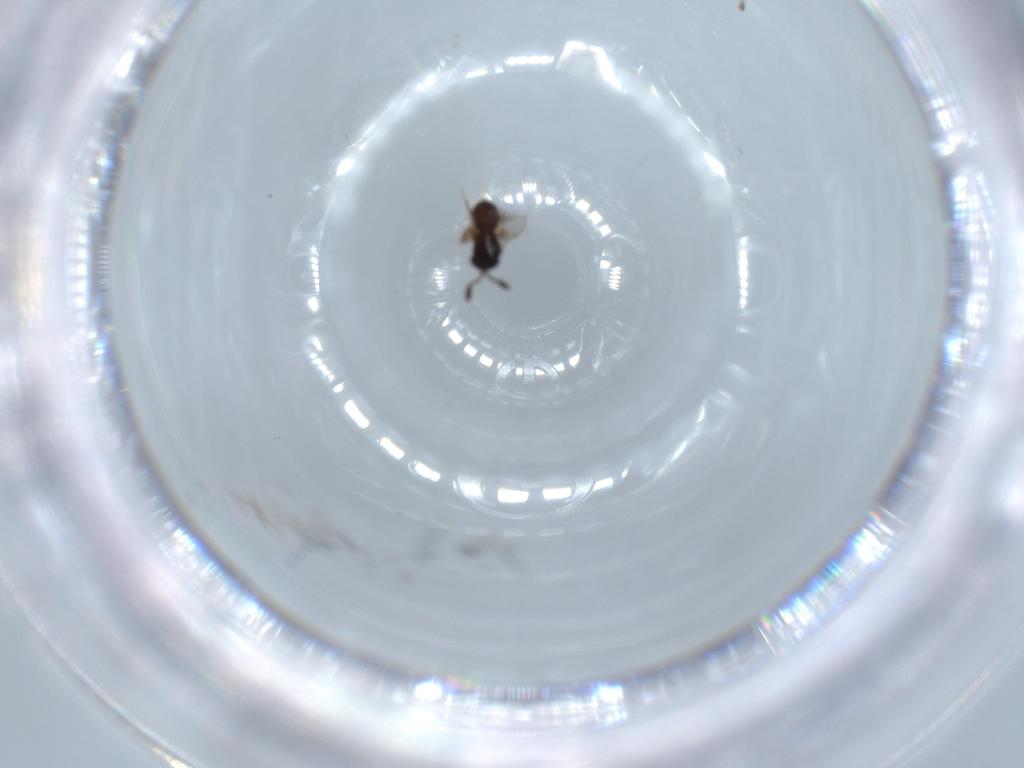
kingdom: Animalia
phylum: Arthropoda
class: Insecta
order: Hymenoptera
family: Scelionidae
